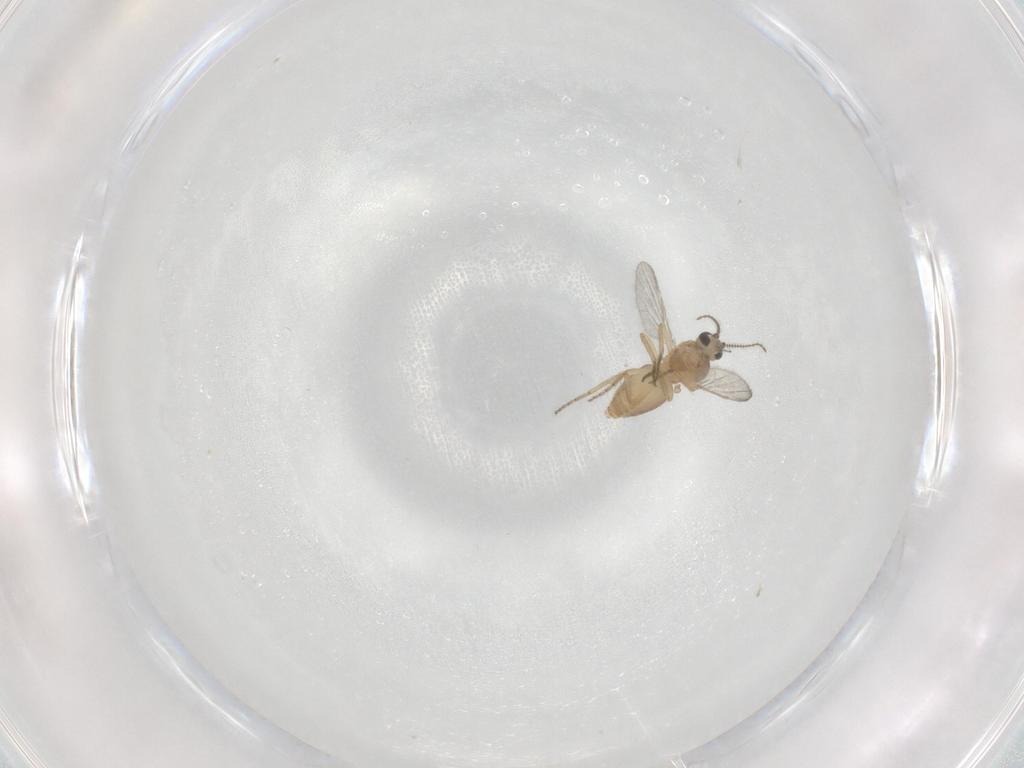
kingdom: Animalia
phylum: Arthropoda
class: Insecta
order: Diptera
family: Ceratopogonidae
